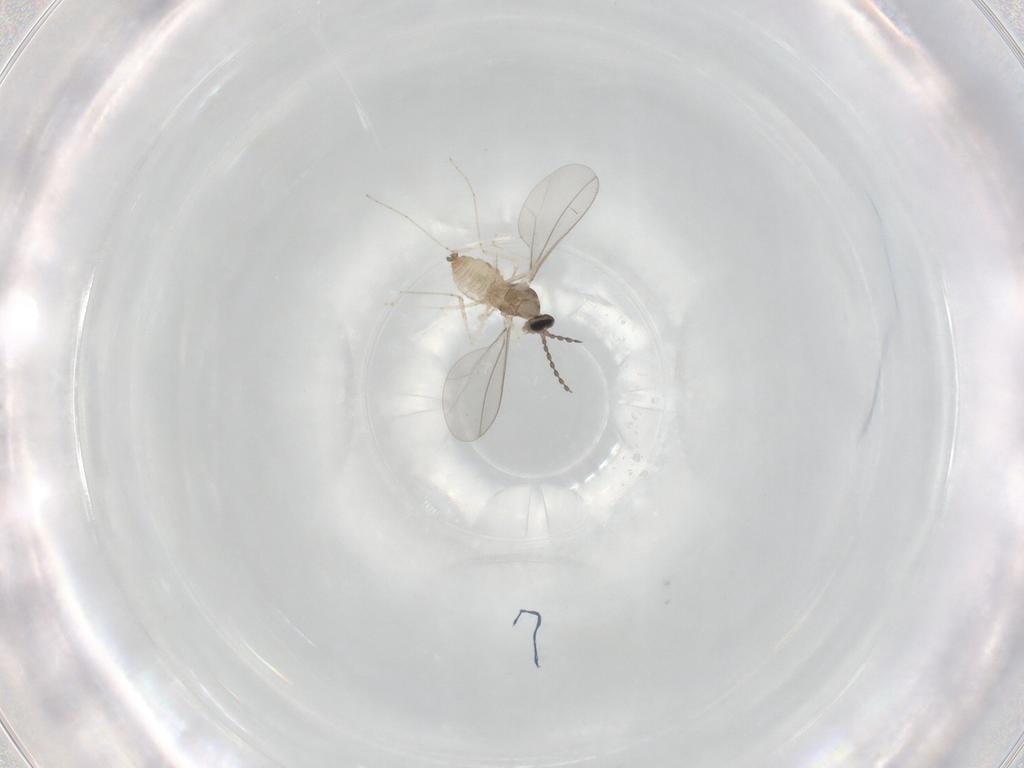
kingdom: Animalia
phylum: Arthropoda
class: Insecta
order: Diptera
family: Cecidomyiidae
